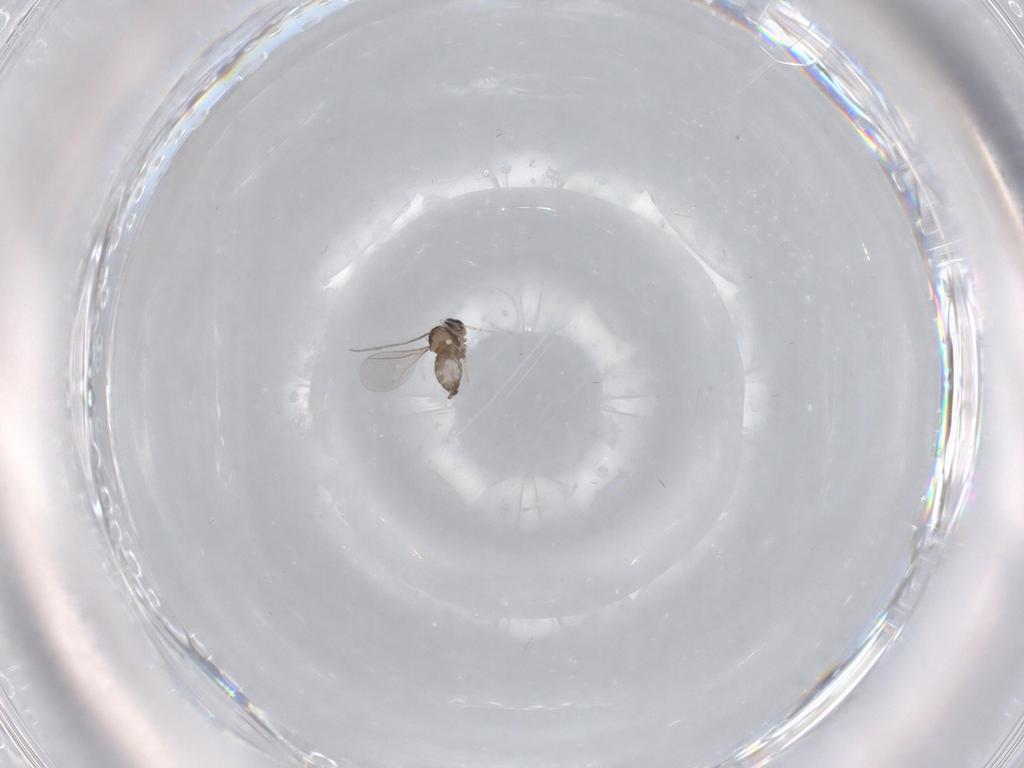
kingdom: Animalia
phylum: Arthropoda
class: Insecta
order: Diptera
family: Cecidomyiidae
